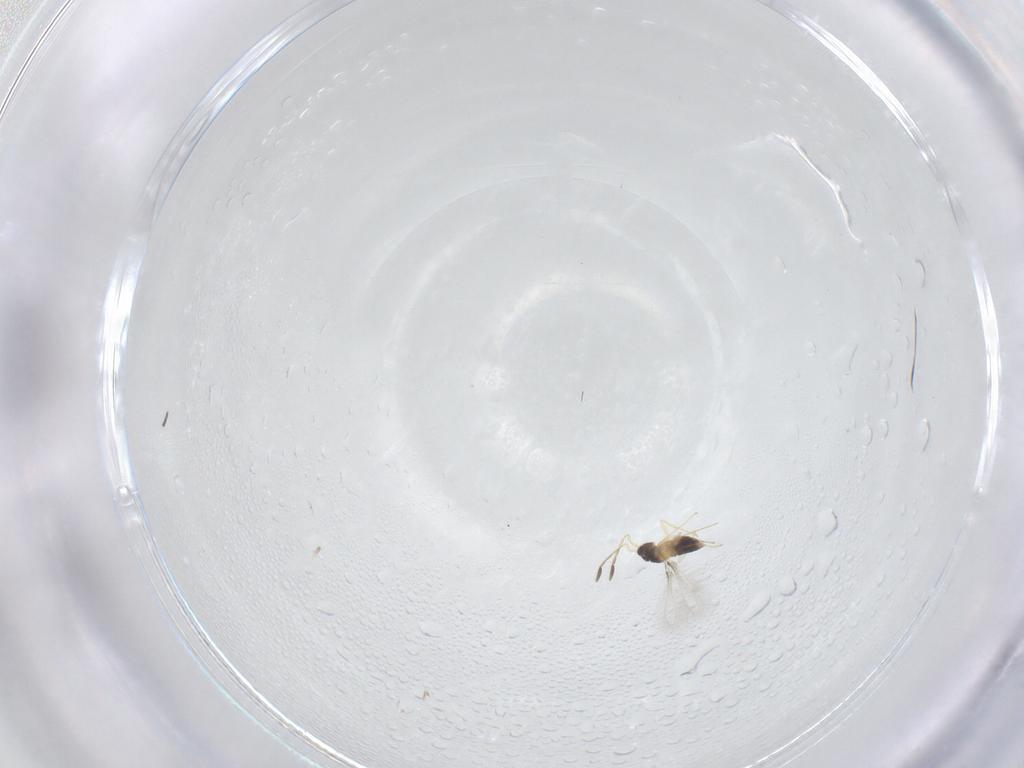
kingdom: Animalia
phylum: Arthropoda
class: Insecta
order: Hymenoptera
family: Mymaridae
